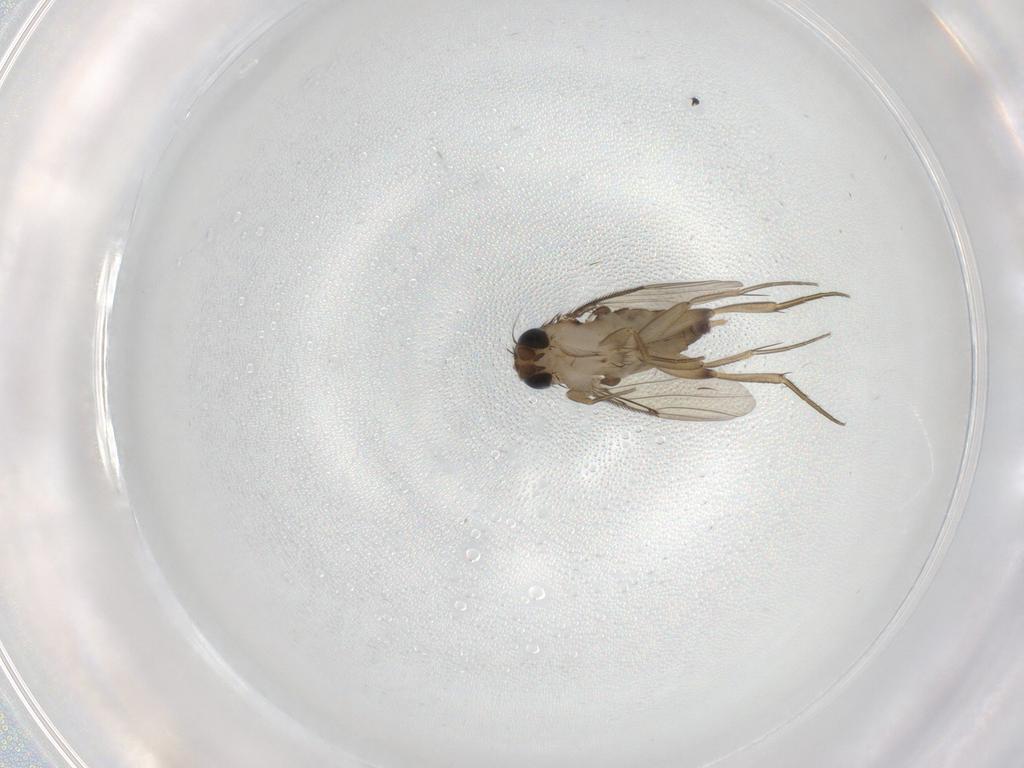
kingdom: Animalia
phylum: Arthropoda
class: Insecta
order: Diptera
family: Phoridae
